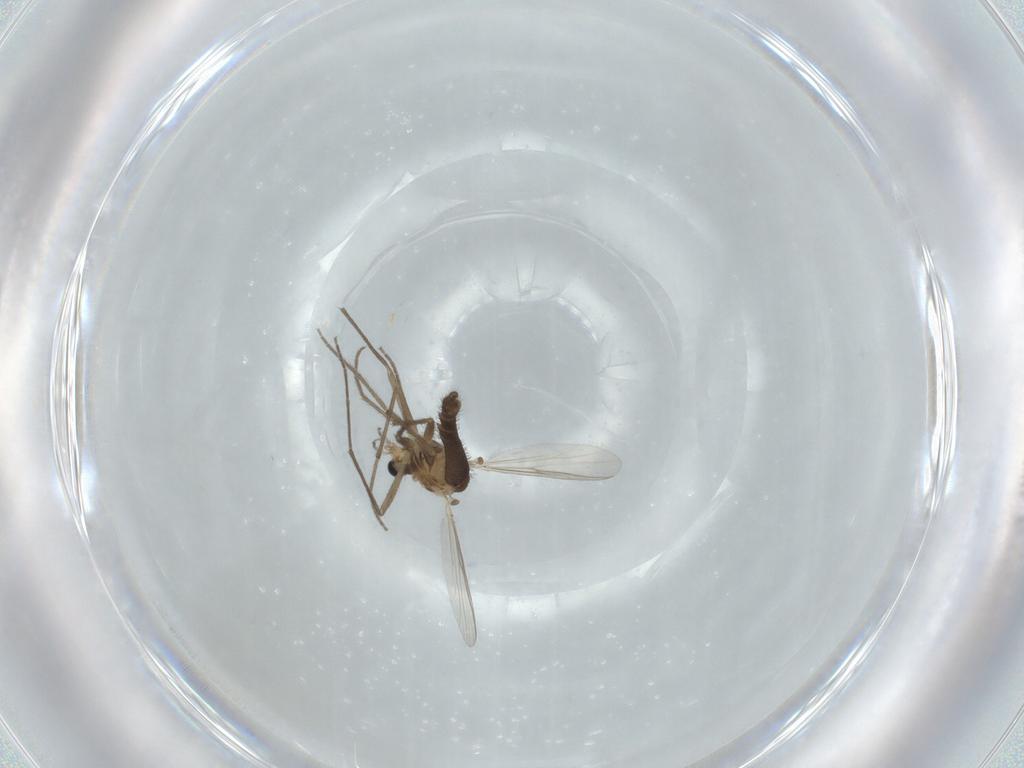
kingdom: Animalia
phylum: Arthropoda
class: Insecta
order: Diptera
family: Chironomidae
